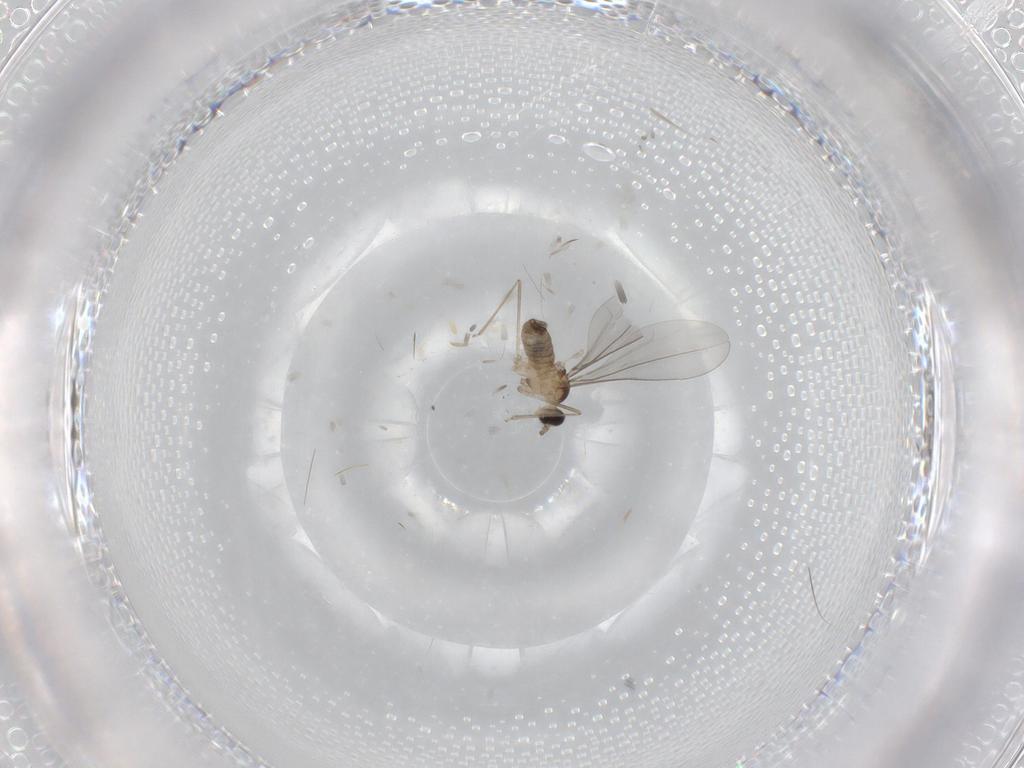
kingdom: Animalia
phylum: Arthropoda
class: Insecta
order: Diptera
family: Cecidomyiidae
